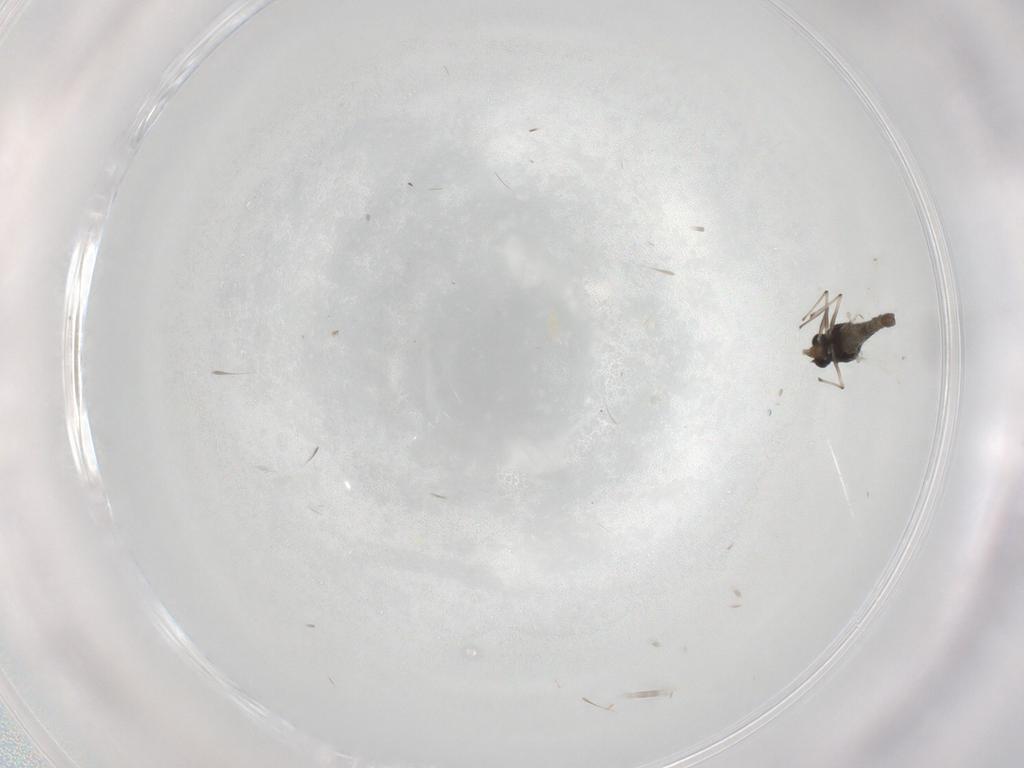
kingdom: Animalia
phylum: Arthropoda
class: Insecta
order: Diptera
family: Chironomidae
